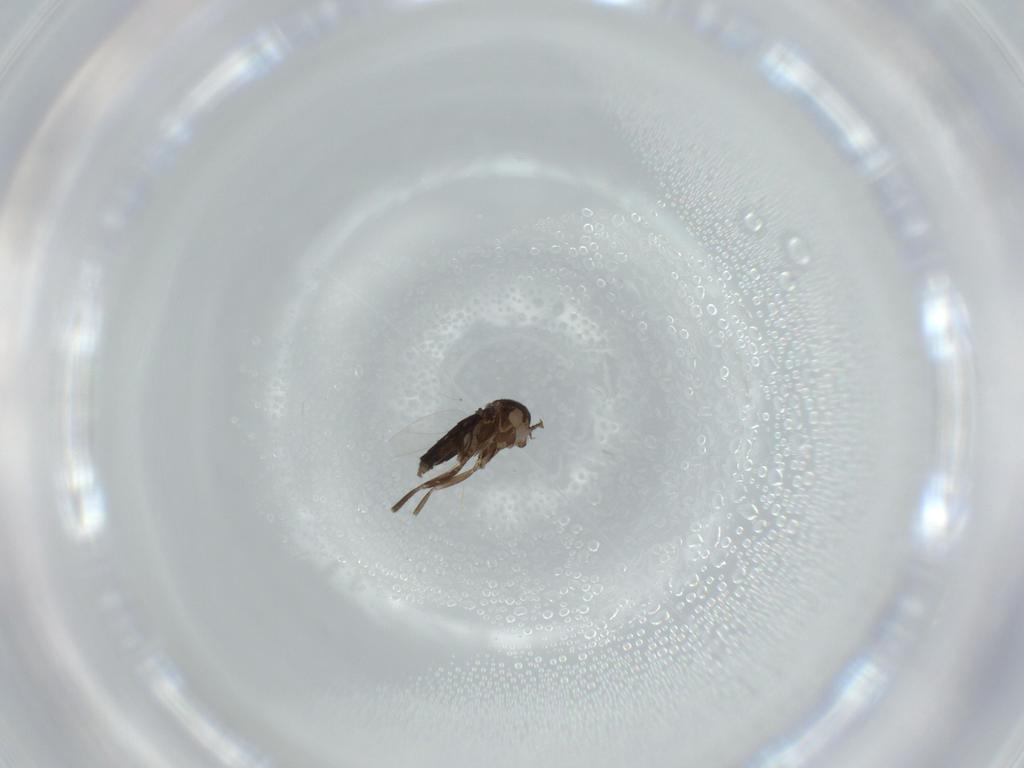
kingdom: Animalia
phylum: Arthropoda
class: Insecta
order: Diptera
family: Phoridae
